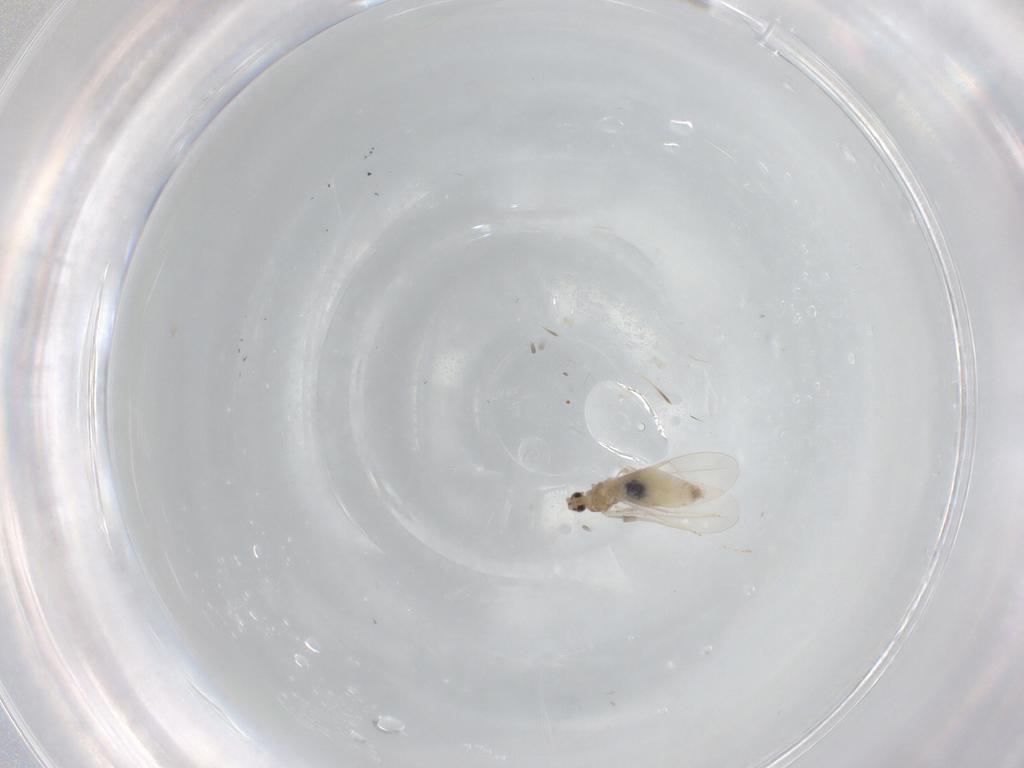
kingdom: Animalia
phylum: Arthropoda
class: Insecta
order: Diptera
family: Cecidomyiidae
